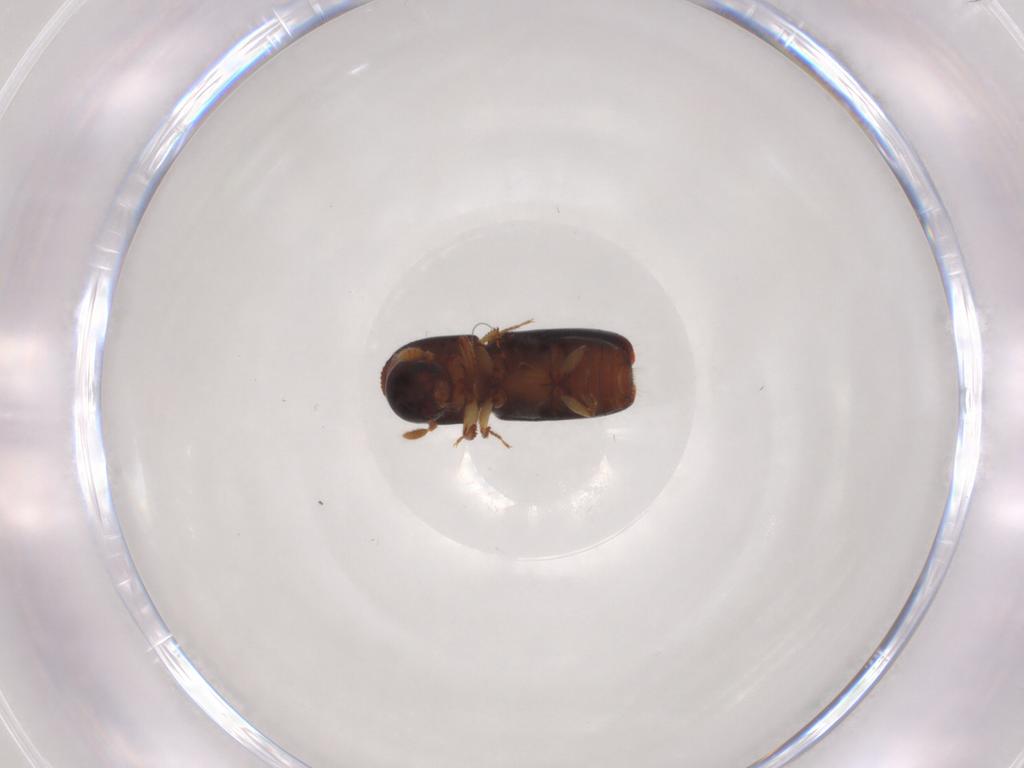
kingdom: Animalia
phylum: Arthropoda
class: Insecta
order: Coleoptera
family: Curculionidae
